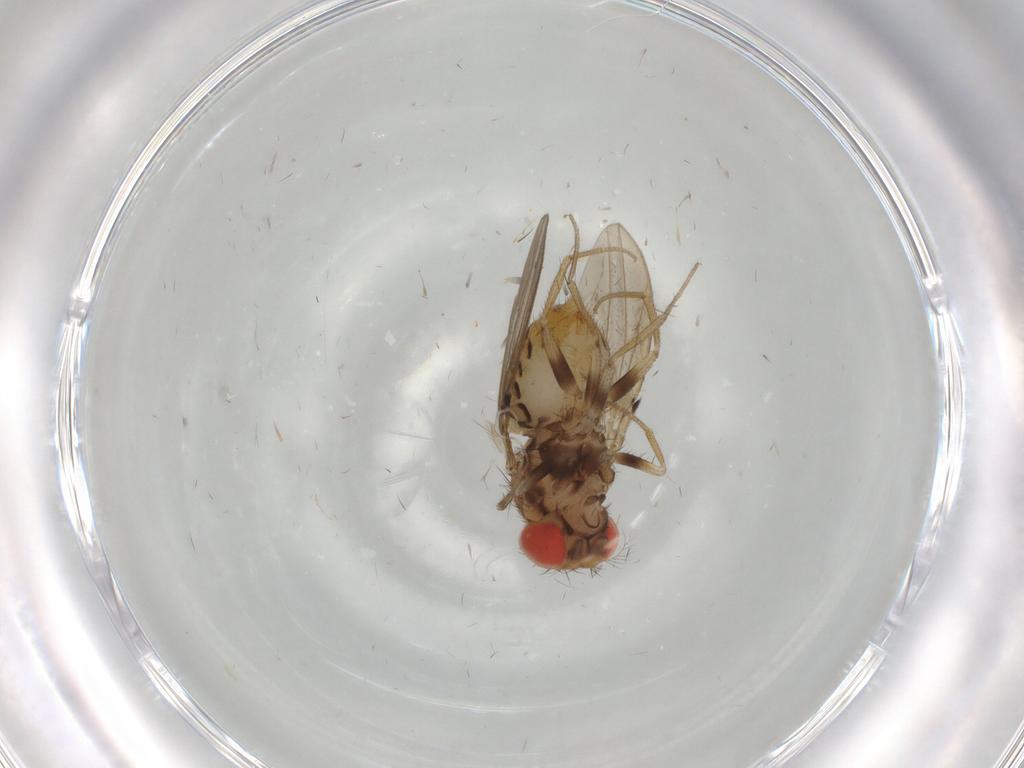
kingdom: Animalia
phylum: Arthropoda
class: Insecta
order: Diptera
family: Drosophilidae
